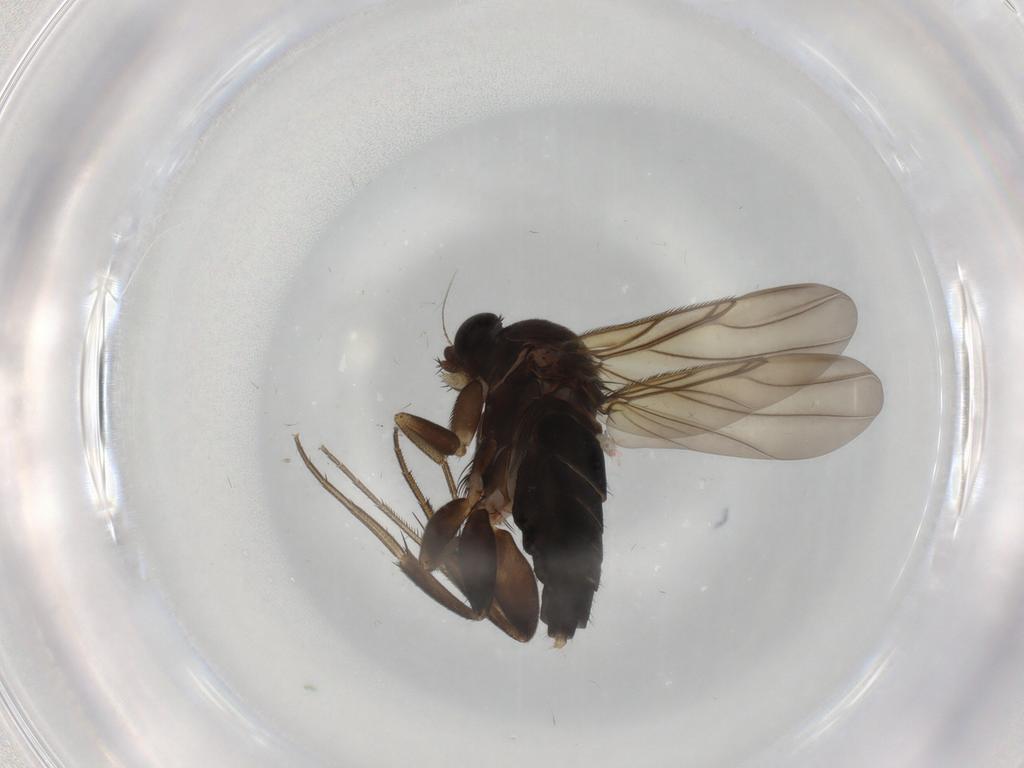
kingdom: Animalia
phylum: Arthropoda
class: Insecta
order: Diptera
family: Phoridae
